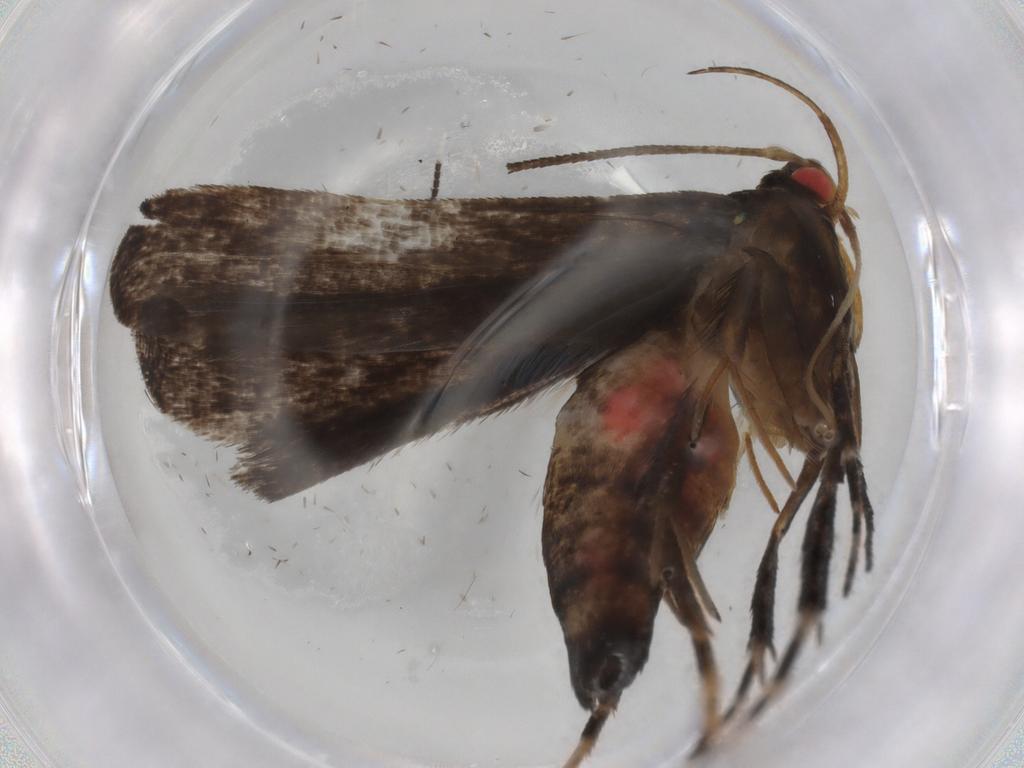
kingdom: Animalia
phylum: Arthropoda
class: Insecta
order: Lepidoptera
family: Gelechiidae
